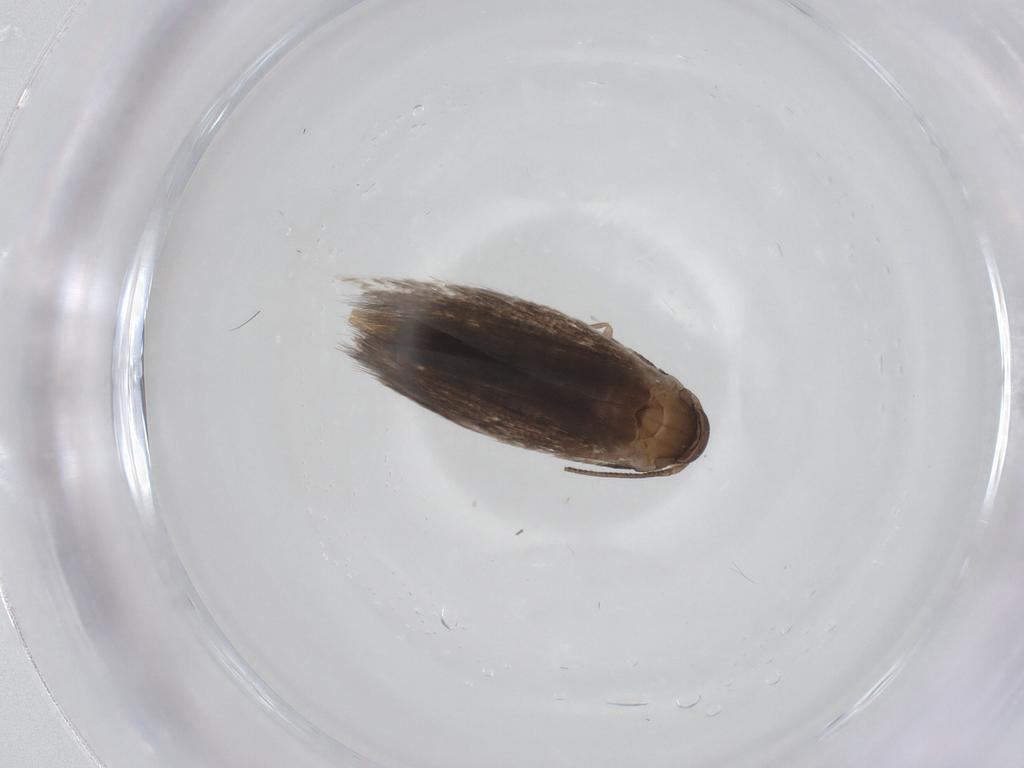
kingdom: Animalia
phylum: Arthropoda
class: Insecta
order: Lepidoptera
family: Elachistidae
